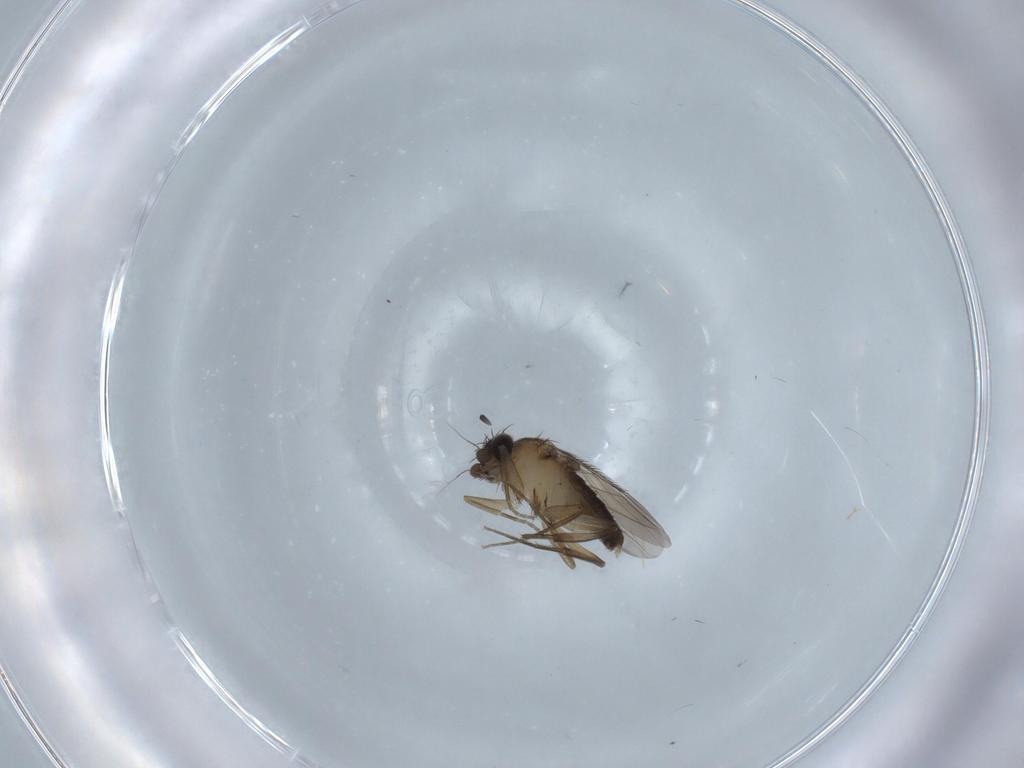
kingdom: Animalia
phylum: Arthropoda
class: Insecta
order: Diptera
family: Phoridae
